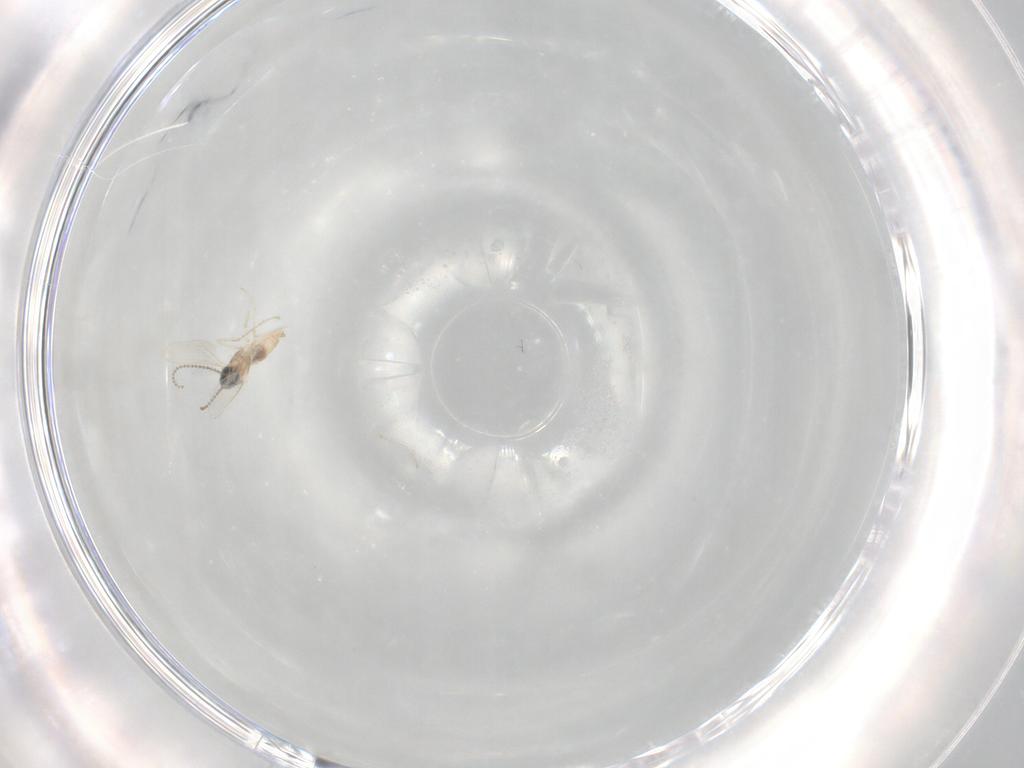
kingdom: Animalia
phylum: Arthropoda
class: Insecta
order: Diptera
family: Cecidomyiidae
